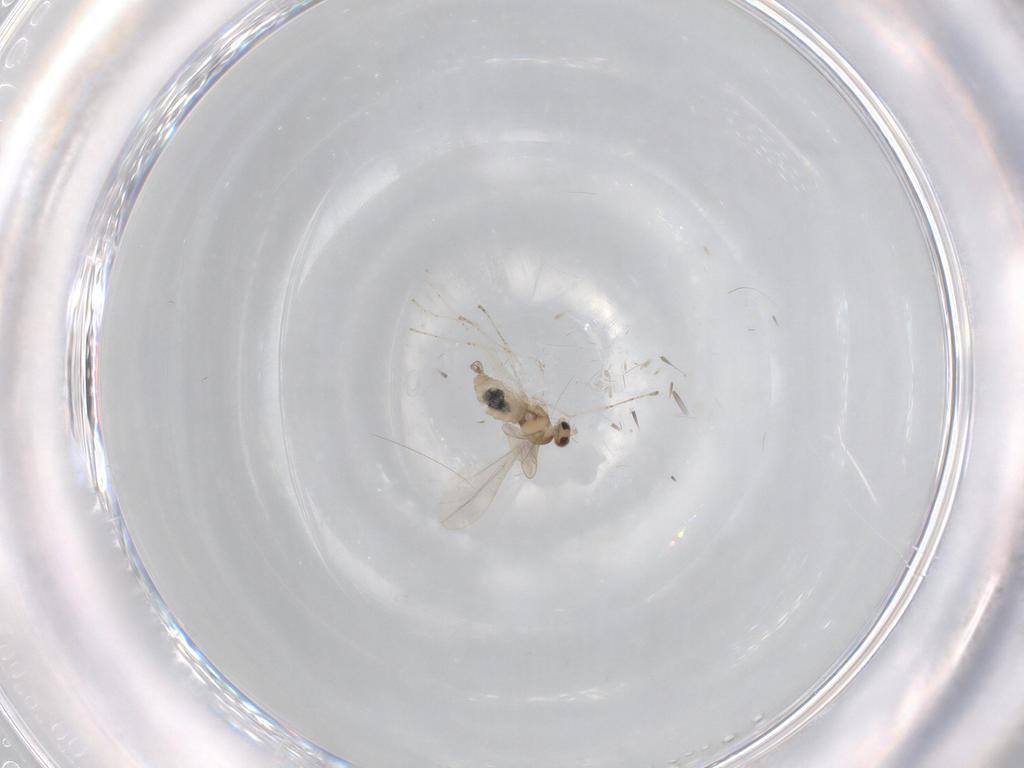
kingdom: Animalia
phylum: Arthropoda
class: Insecta
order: Diptera
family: Cecidomyiidae
